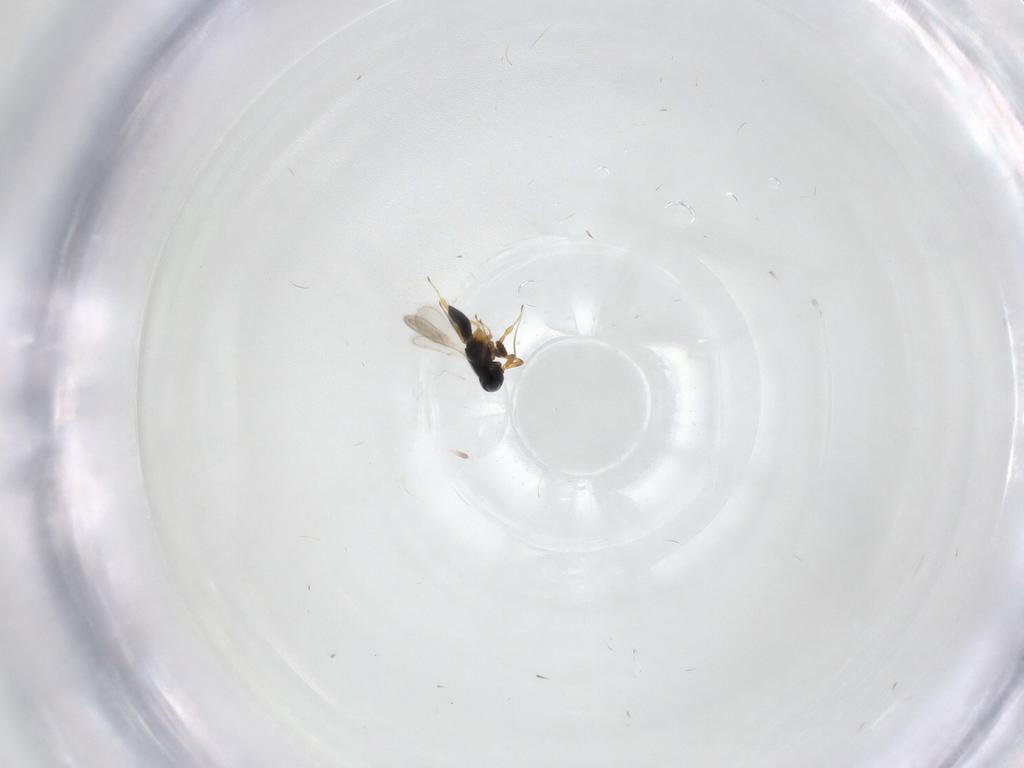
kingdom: Animalia
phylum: Arthropoda
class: Insecta
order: Hymenoptera
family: Scelionidae
